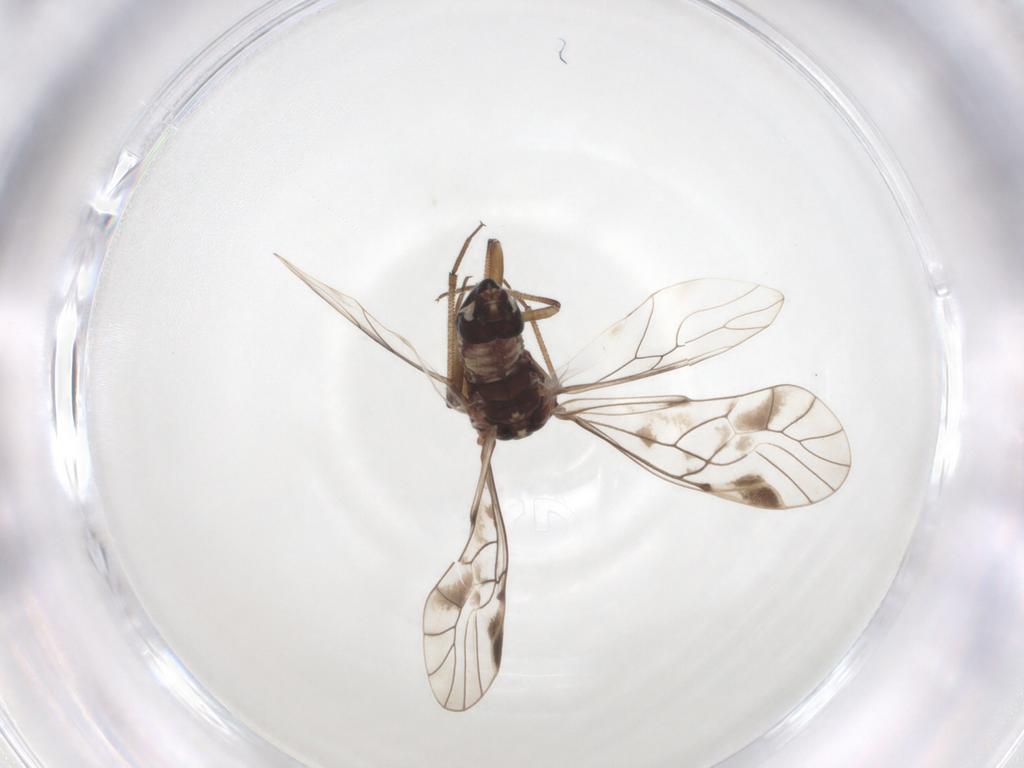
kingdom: Animalia
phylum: Arthropoda
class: Insecta
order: Psocodea
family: Psocidae
